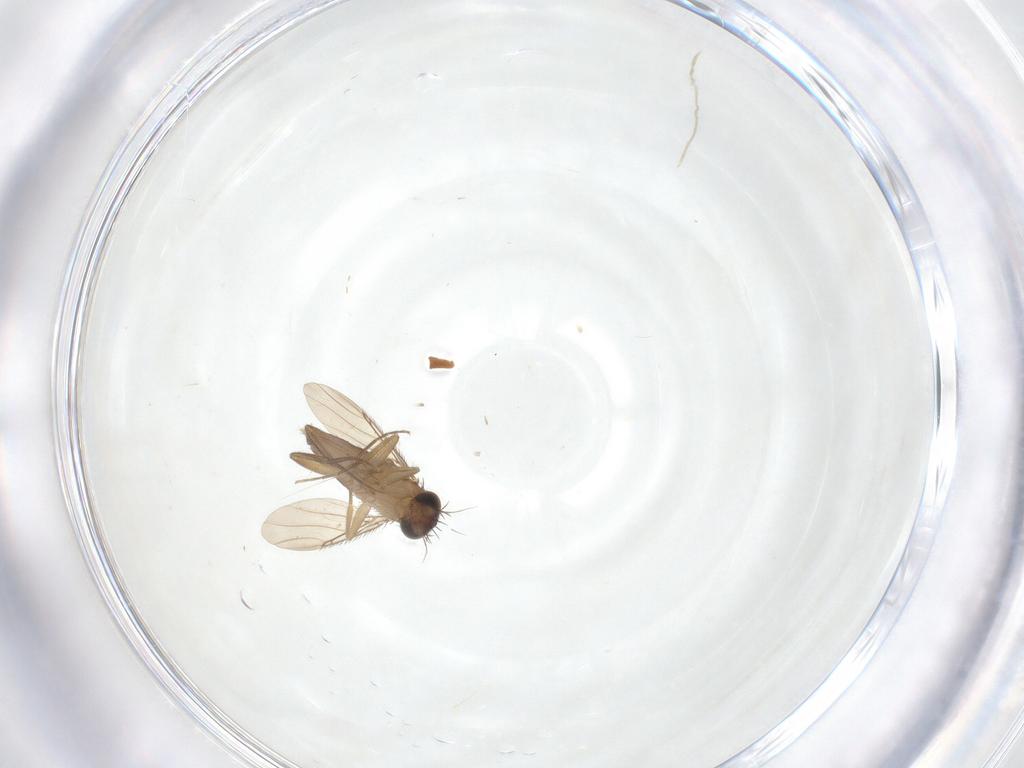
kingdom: Animalia
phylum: Arthropoda
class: Insecta
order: Diptera
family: Phoridae
